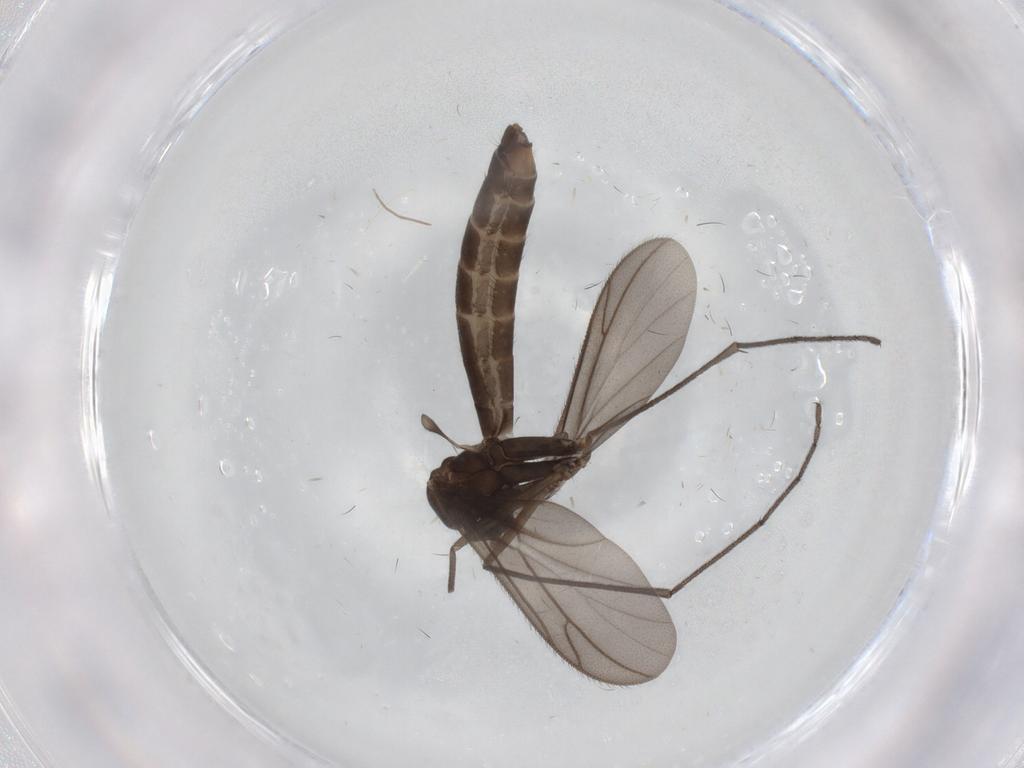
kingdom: Animalia
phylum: Arthropoda
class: Insecta
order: Diptera
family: Keroplatidae
